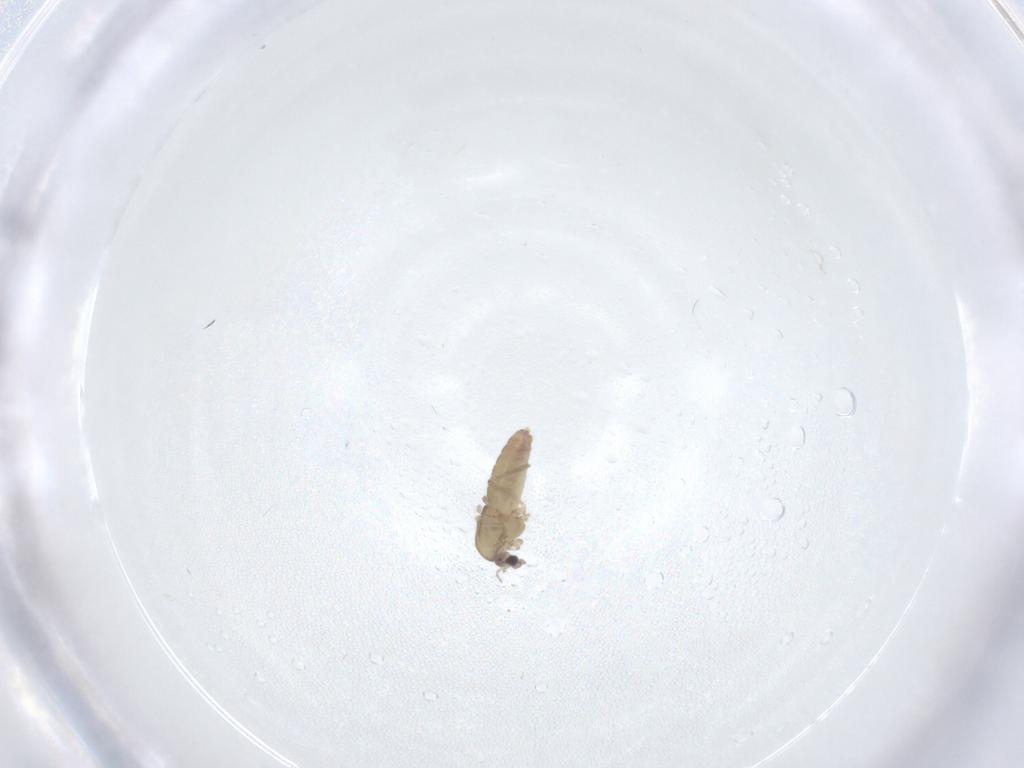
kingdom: Animalia
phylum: Arthropoda
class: Insecta
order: Diptera
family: Chironomidae
